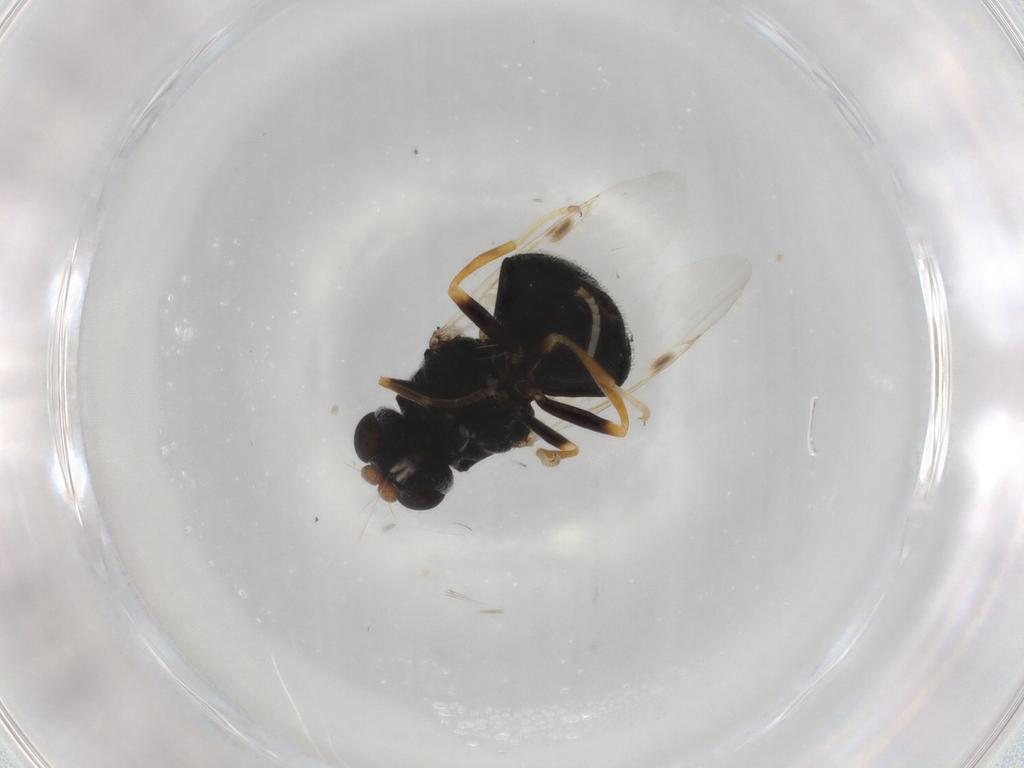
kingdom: Animalia
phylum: Arthropoda
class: Insecta
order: Diptera
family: Stratiomyidae
